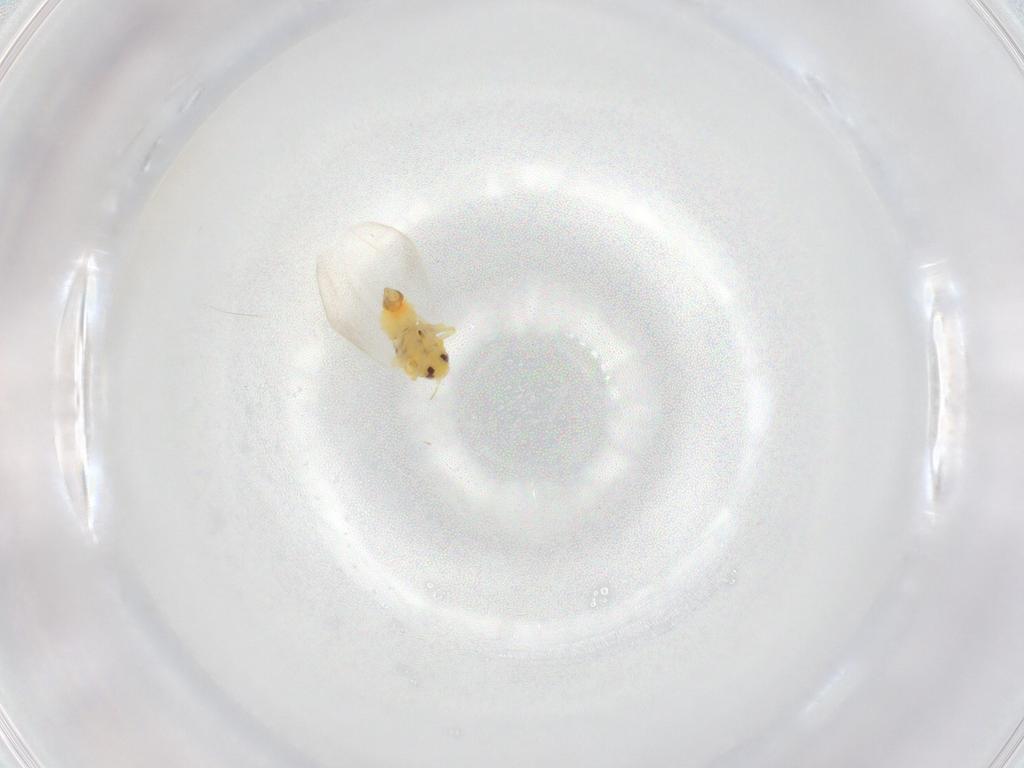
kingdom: Animalia
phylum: Arthropoda
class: Insecta
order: Hemiptera
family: Aleyrodidae
